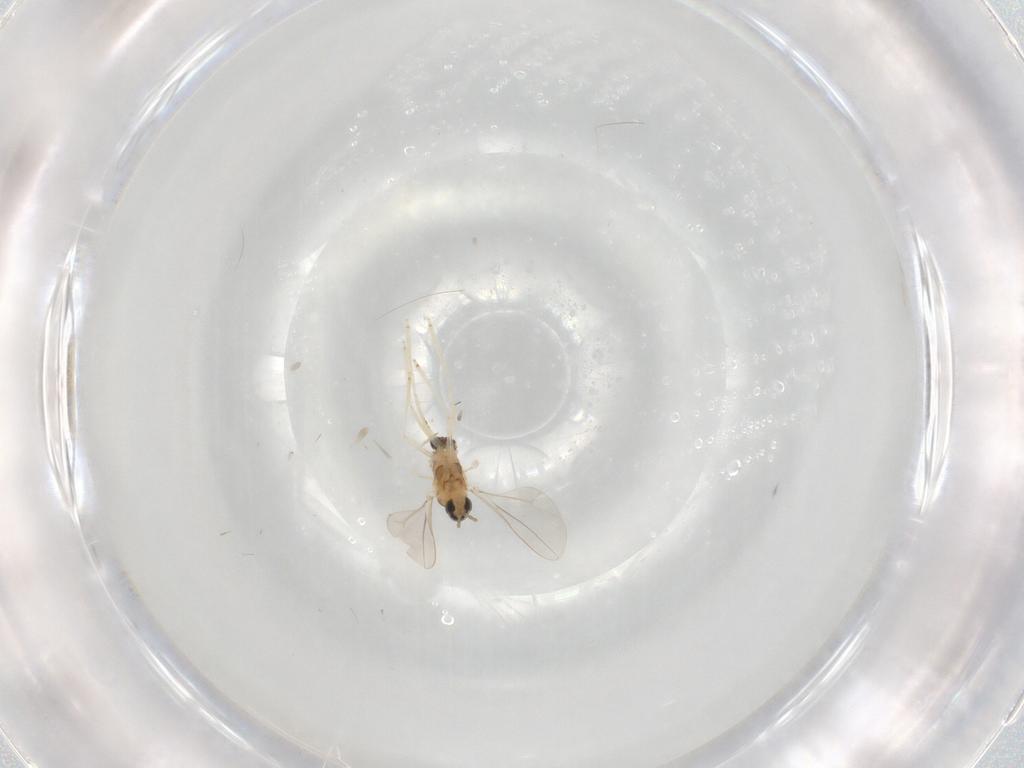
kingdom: Animalia
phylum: Arthropoda
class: Insecta
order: Diptera
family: Cecidomyiidae
